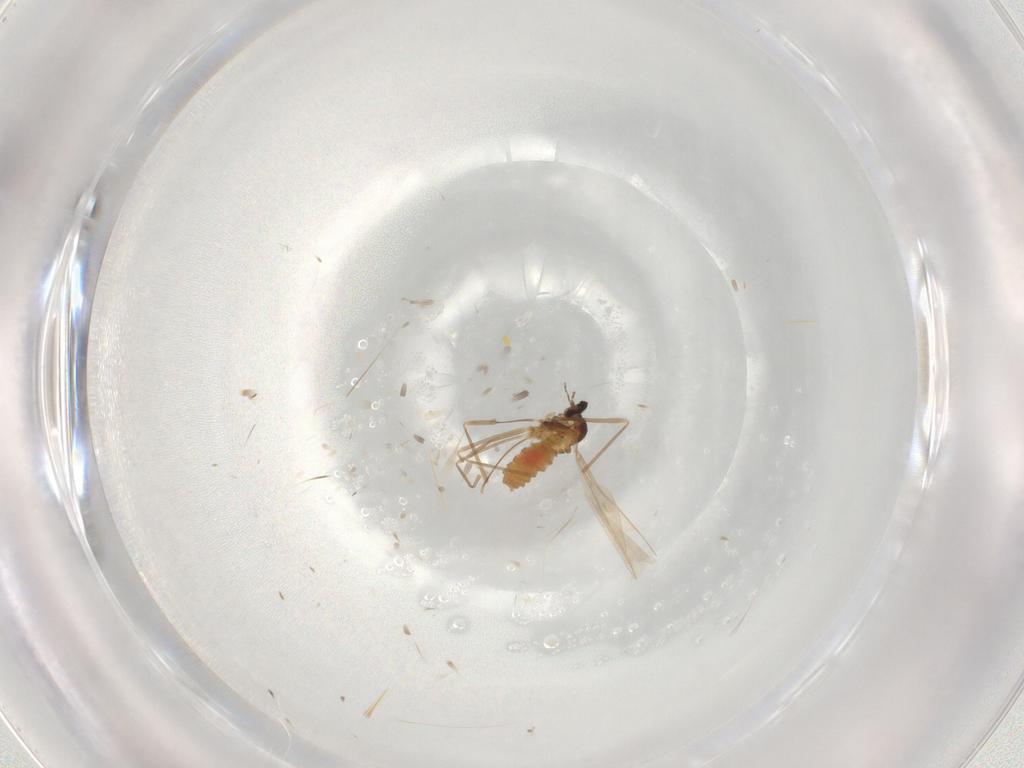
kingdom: Animalia
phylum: Arthropoda
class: Insecta
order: Diptera
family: Cecidomyiidae
